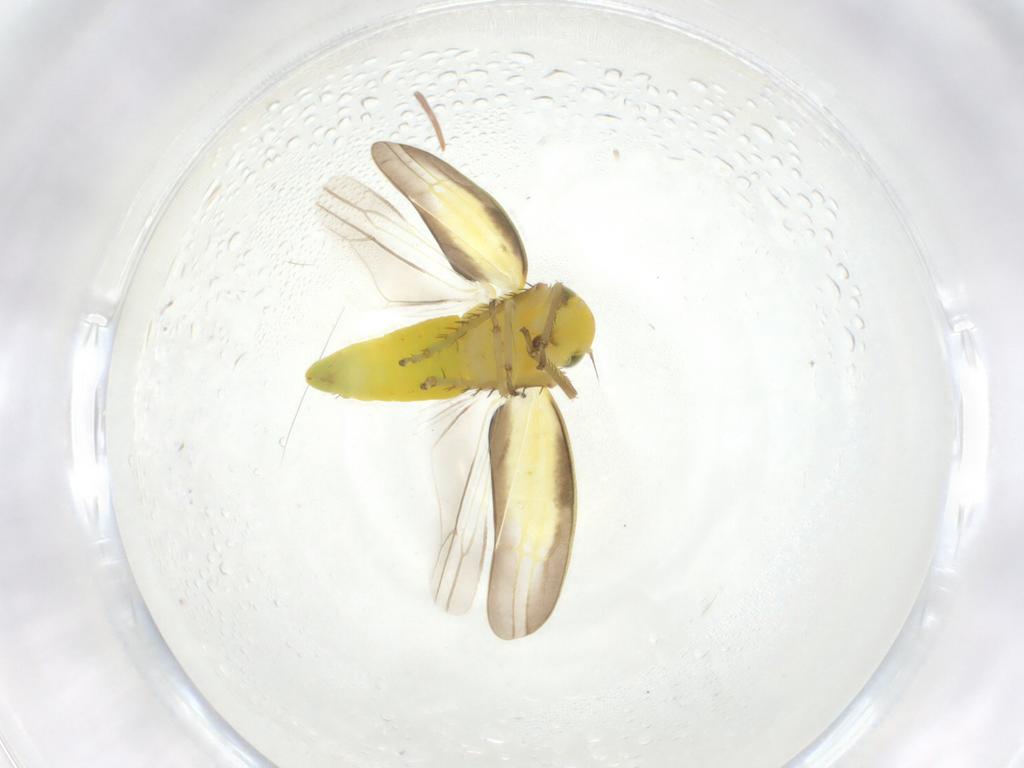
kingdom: Animalia
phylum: Arthropoda
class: Insecta
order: Hemiptera
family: Cicadellidae
